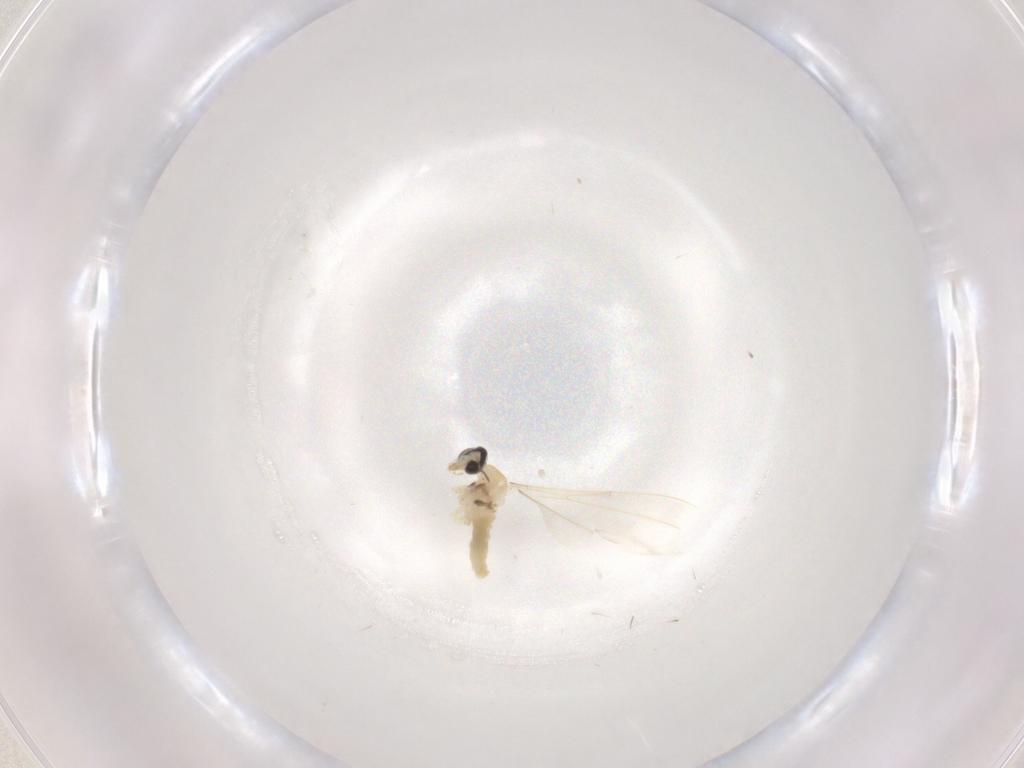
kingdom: Animalia
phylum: Arthropoda
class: Insecta
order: Diptera
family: Cecidomyiidae
